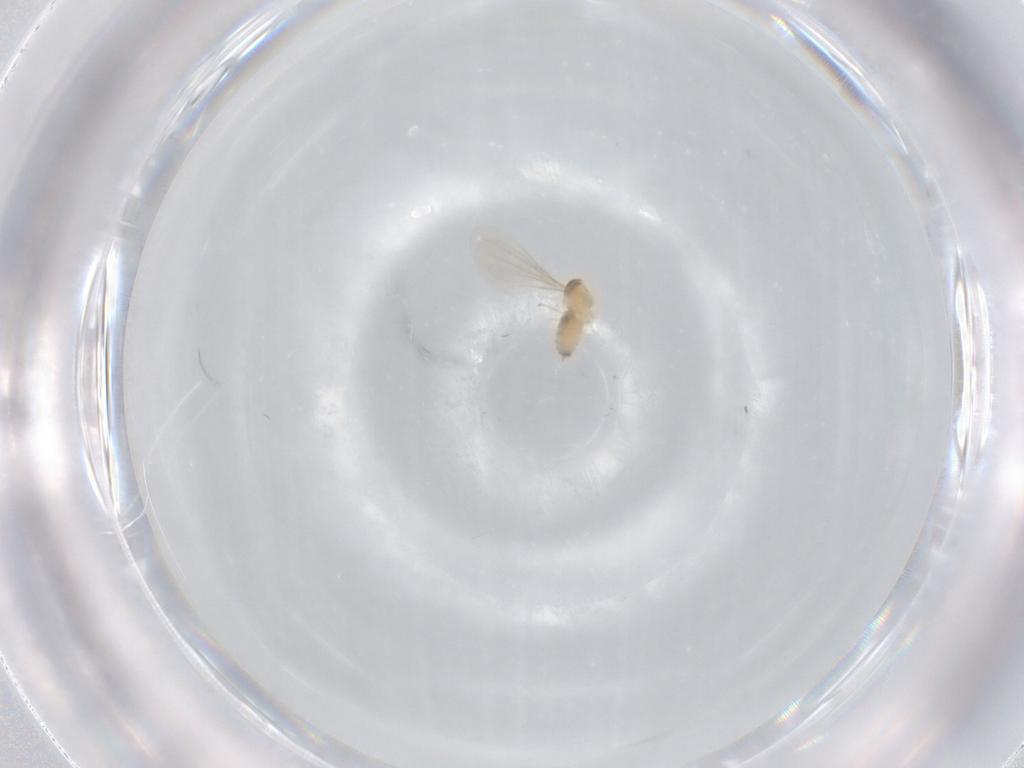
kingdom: Animalia
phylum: Arthropoda
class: Insecta
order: Diptera
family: Cecidomyiidae
